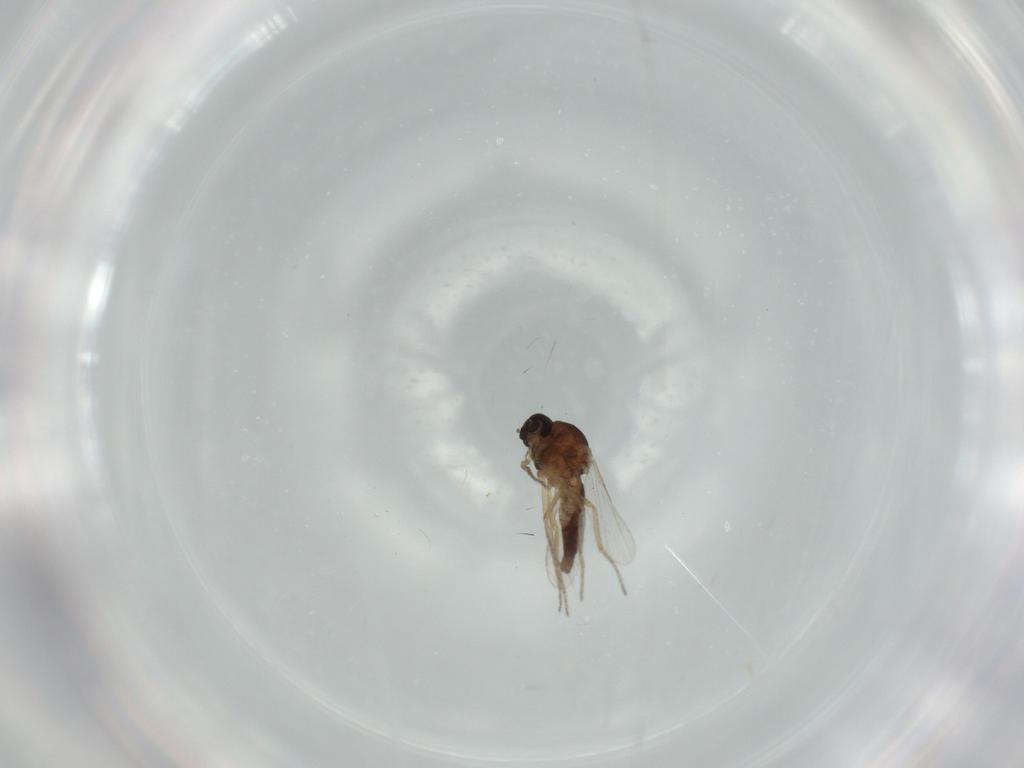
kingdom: Animalia
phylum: Arthropoda
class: Insecta
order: Diptera
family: Ceratopogonidae
